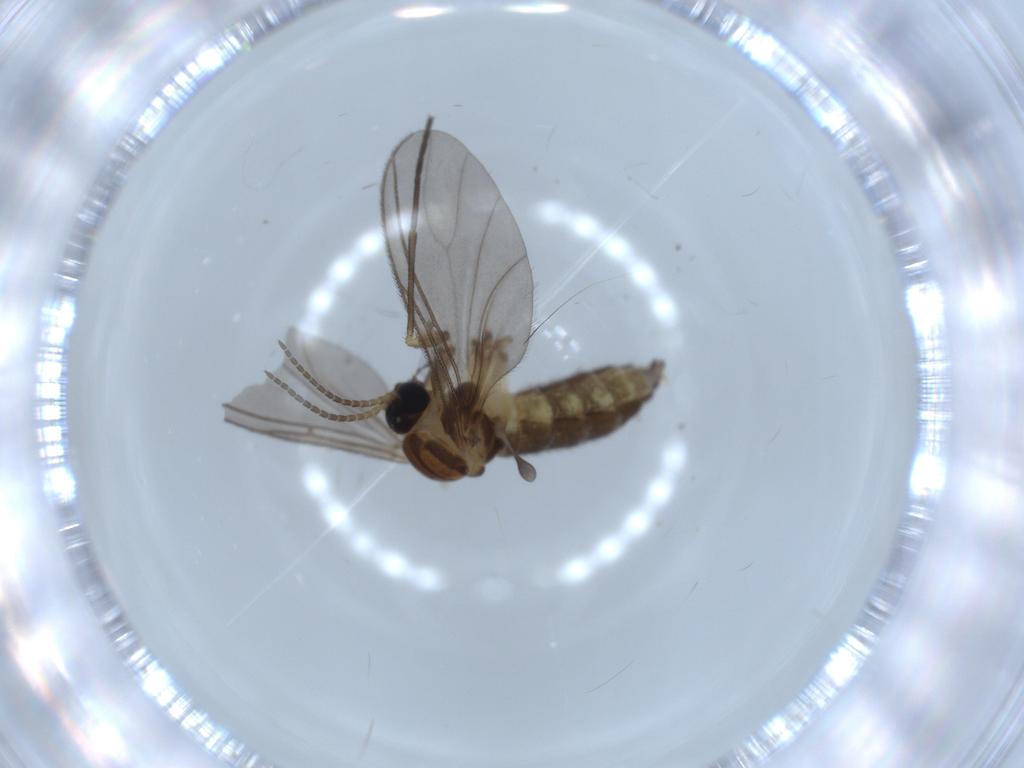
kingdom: Animalia
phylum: Arthropoda
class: Insecta
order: Diptera
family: Sciaridae
